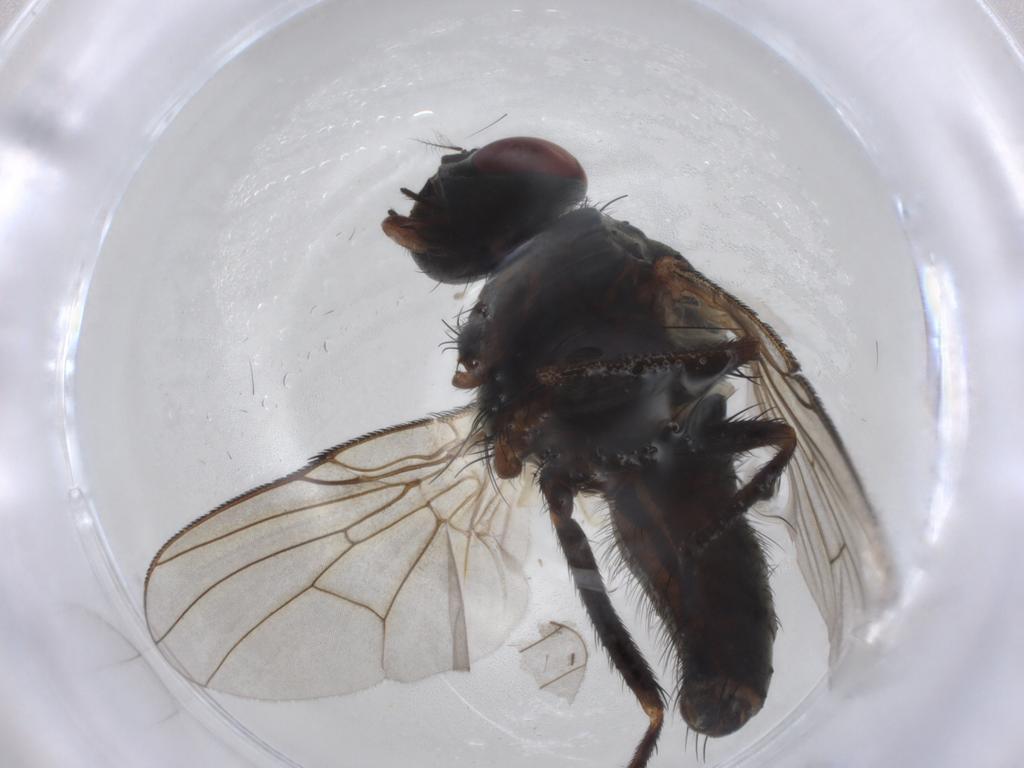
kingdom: Animalia
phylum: Arthropoda
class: Insecta
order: Diptera
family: Muscidae
